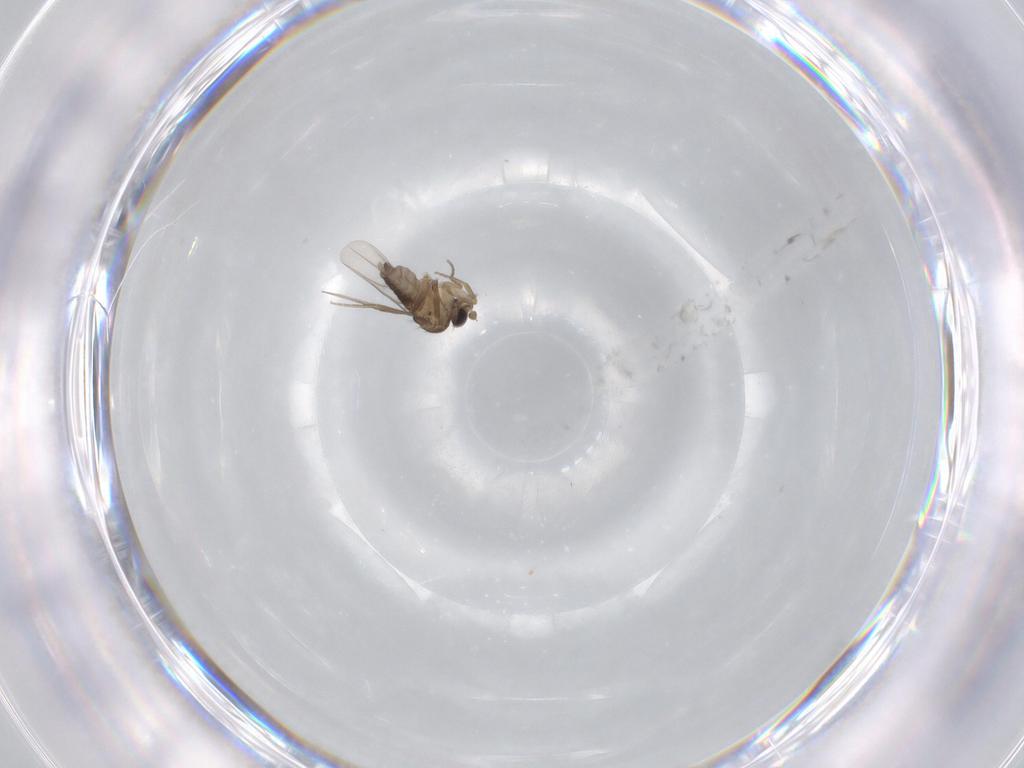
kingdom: Animalia
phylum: Arthropoda
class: Insecta
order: Diptera
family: Phoridae
